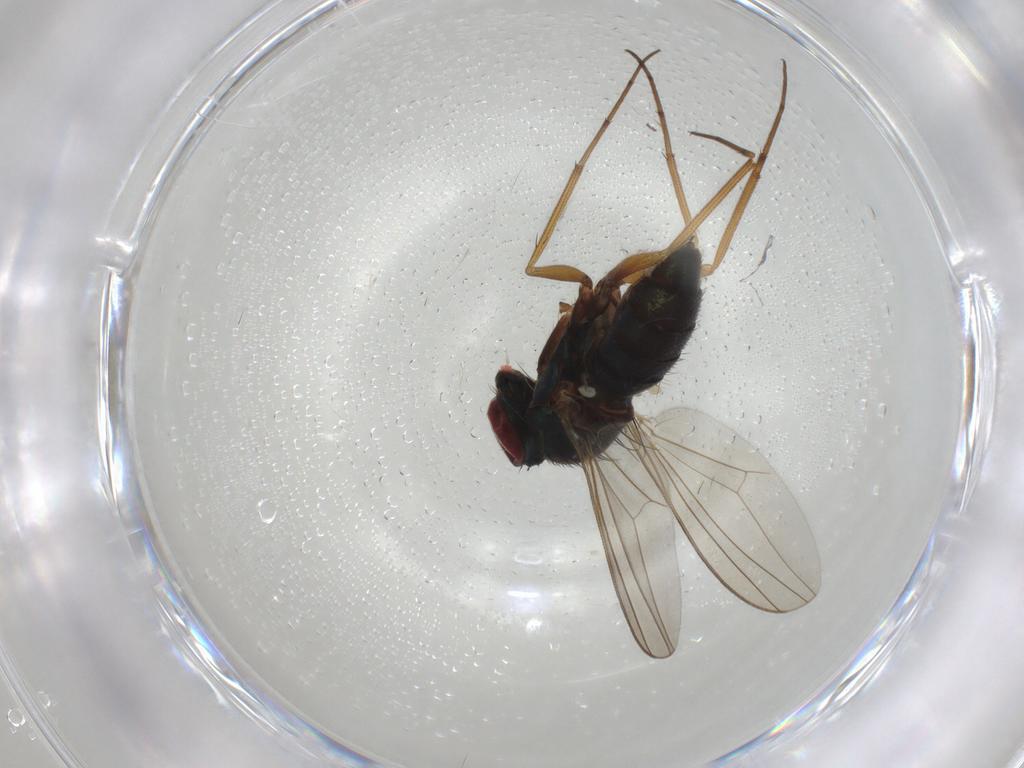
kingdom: Animalia
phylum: Arthropoda
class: Insecta
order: Diptera
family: Dolichopodidae
